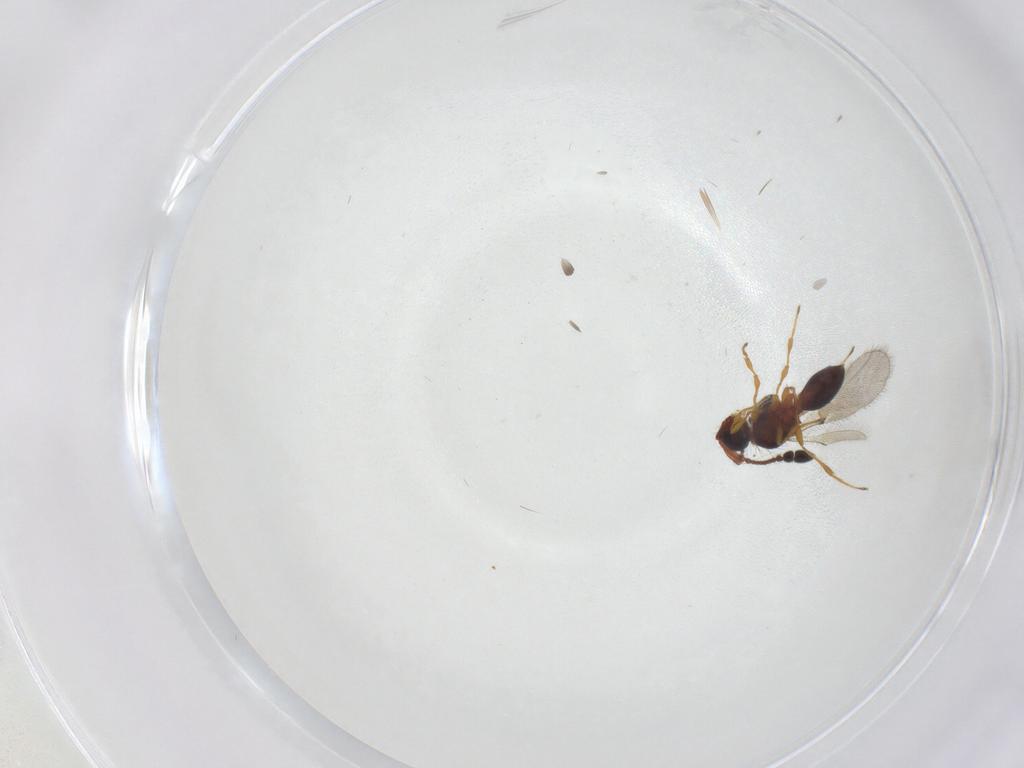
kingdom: Animalia
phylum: Arthropoda
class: Insecta
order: Hymenoptera
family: Diapriidae
